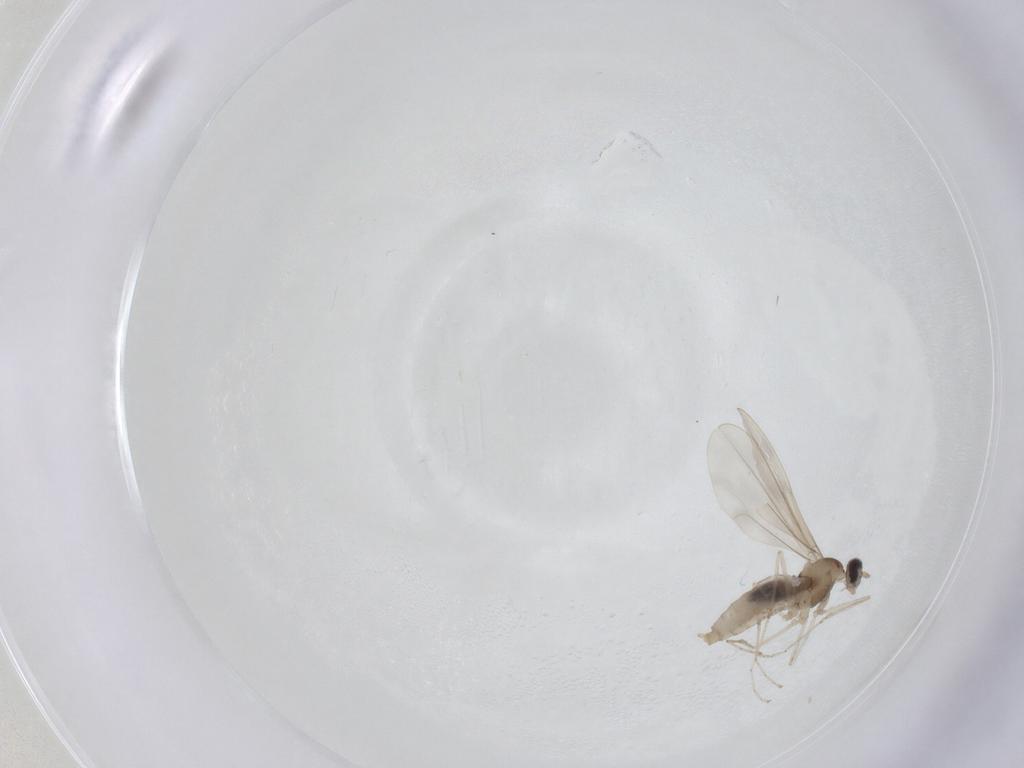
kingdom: Animalia
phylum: Arthropoda
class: Insecta
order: Diptera
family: Cecidomyiidae
